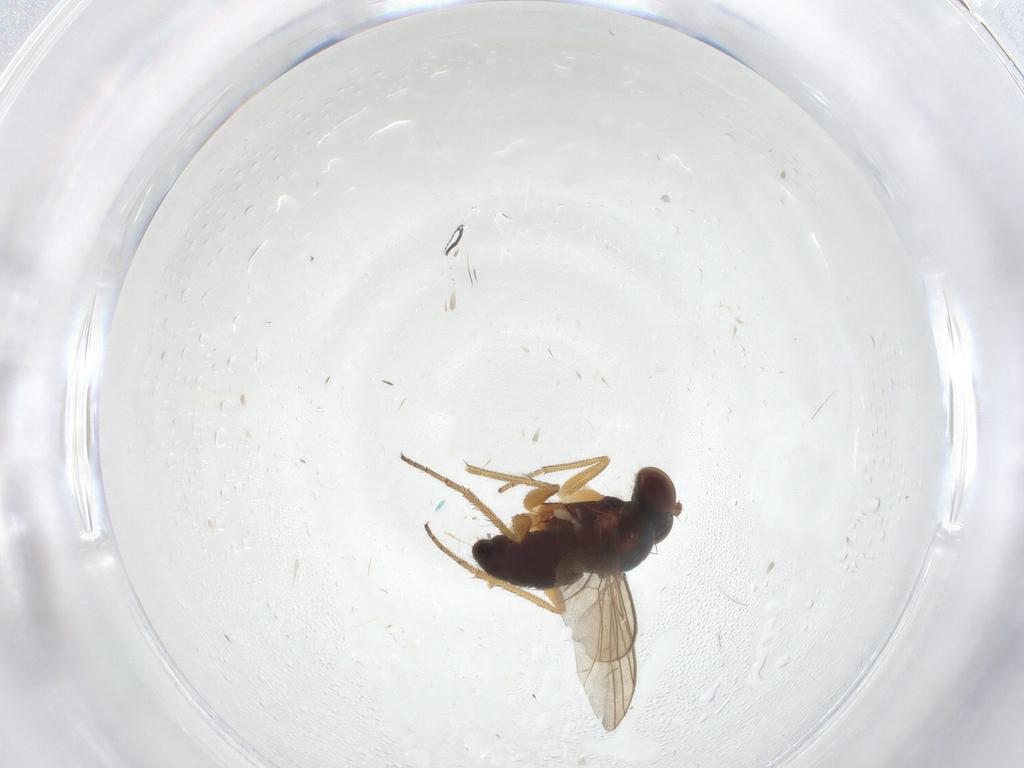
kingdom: Animalia
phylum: Arthropoda
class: Insecta
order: Diptera
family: Dolichopodidae
